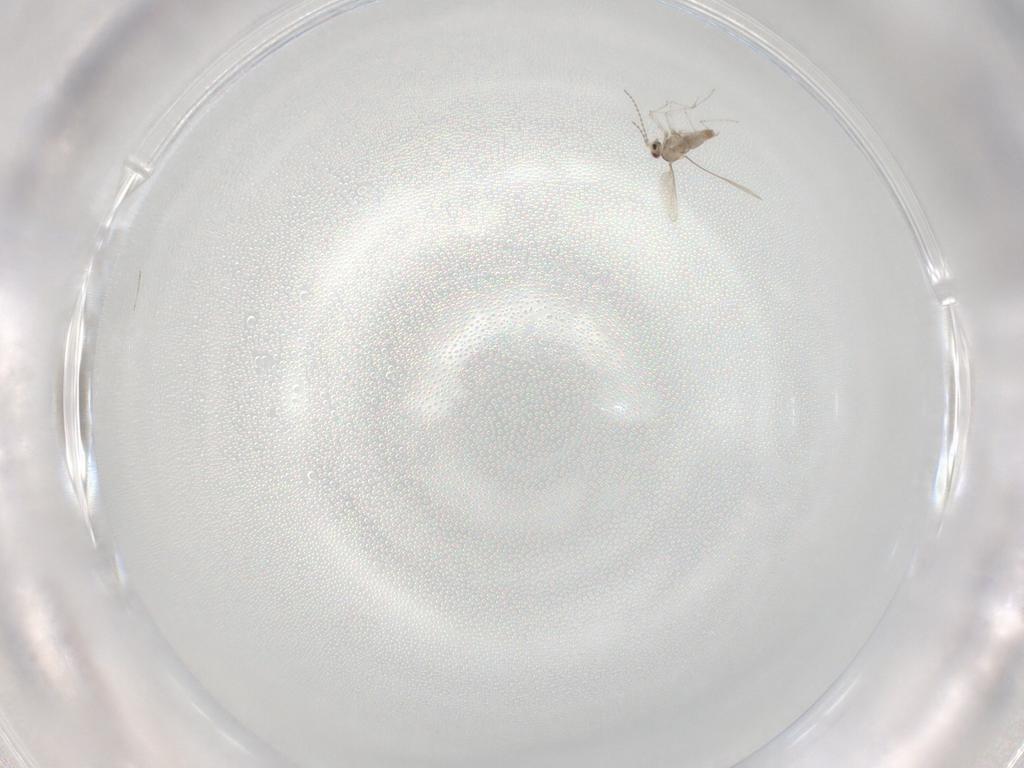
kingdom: Animalia
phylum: Arthropoda
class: Insecta
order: Diptera
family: Cecidomyiidae
